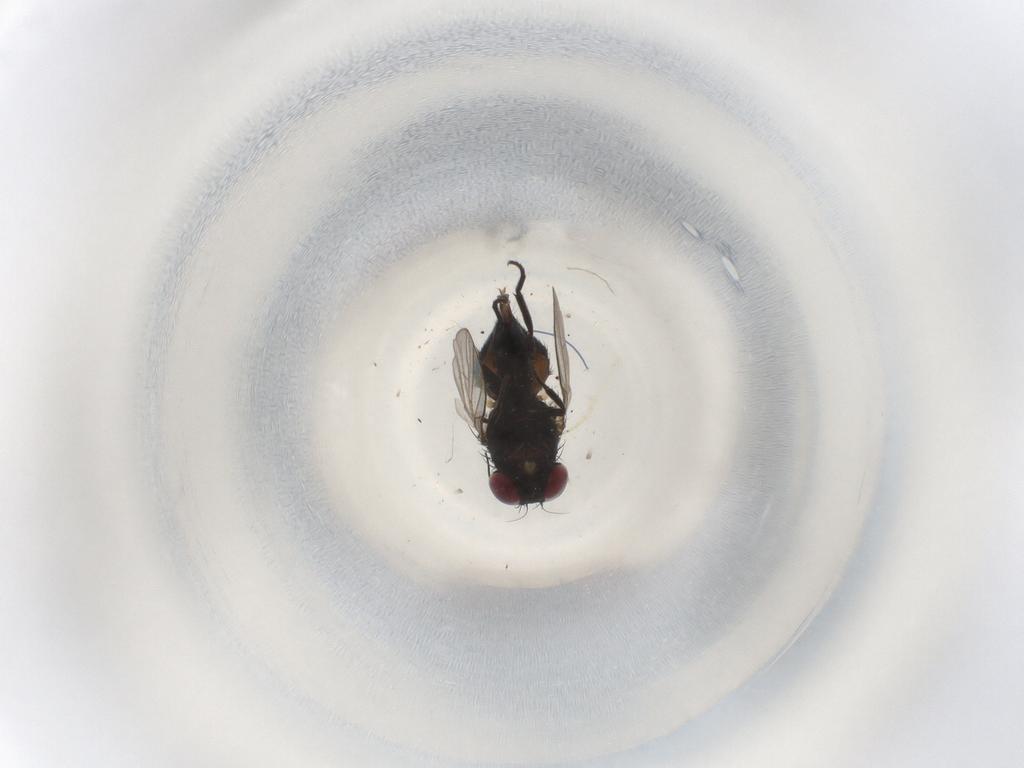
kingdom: Animalia
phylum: Arthropoda
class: Insecta
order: Diptera
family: Agromyzidae
